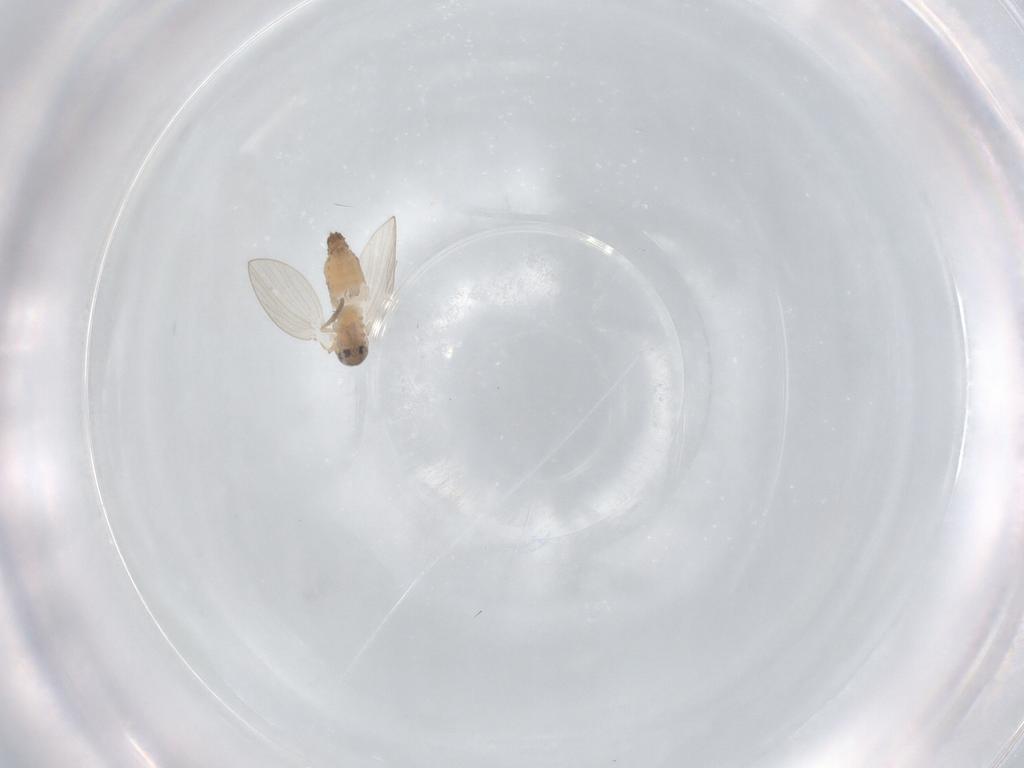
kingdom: Animalia
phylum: Arthropoda
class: Insecta
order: Diptera
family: Psychodidae
